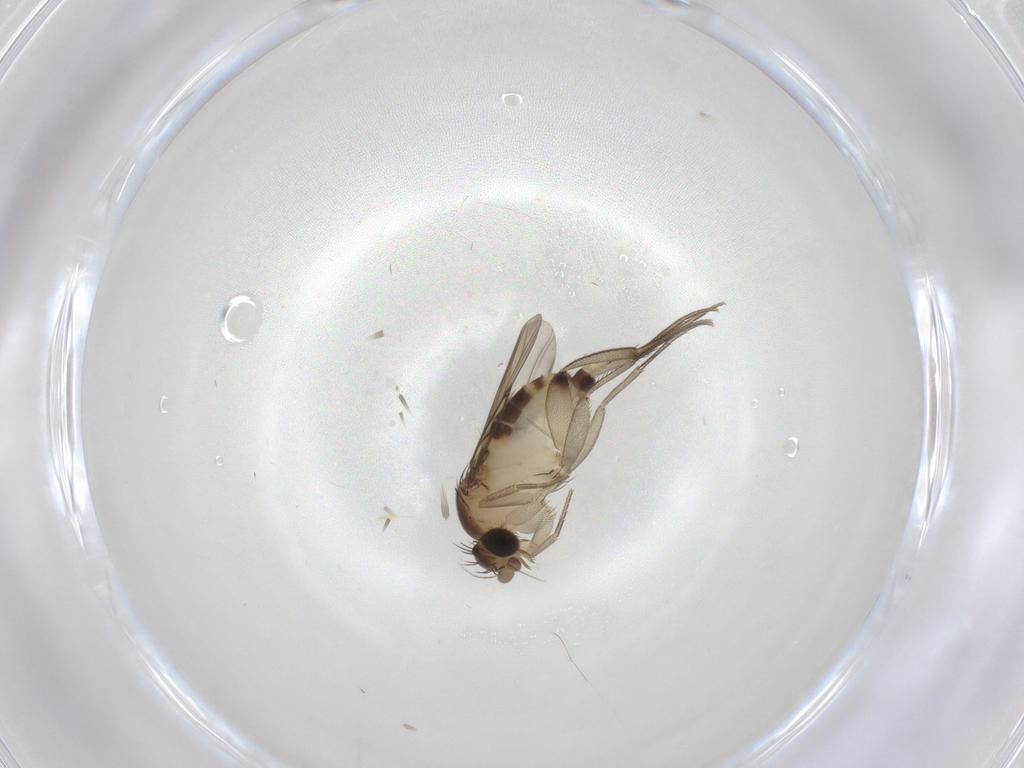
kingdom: Animalia
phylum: Arthropoda
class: Insecta
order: Diptera
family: Phoridae
